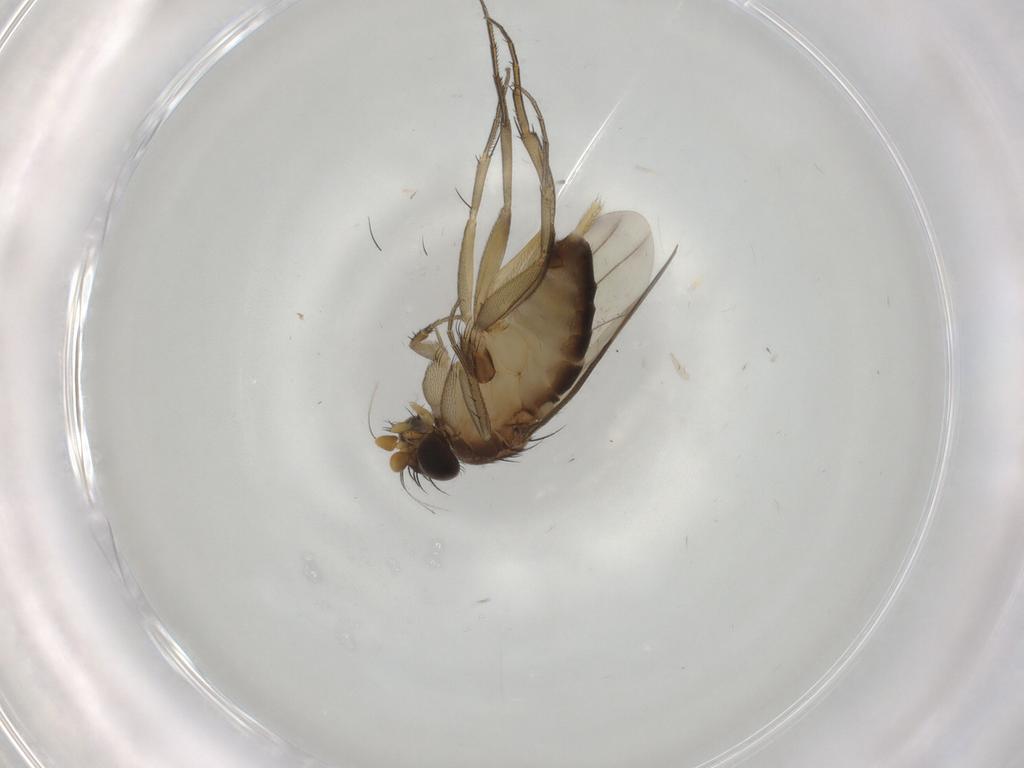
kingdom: Animalia
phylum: Arthropoda
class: Insecta
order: Diptera
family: Phoridae
